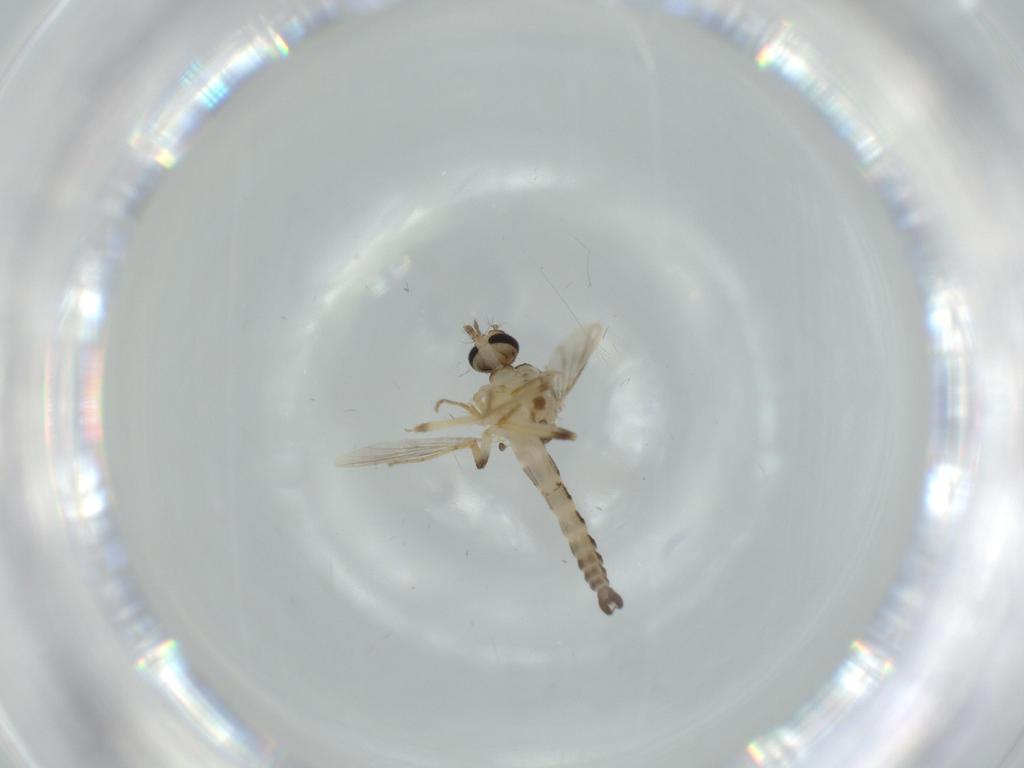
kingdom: Animalia
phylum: Arthropoda
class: Insecta
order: Diptera
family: Ceratopogonidae
